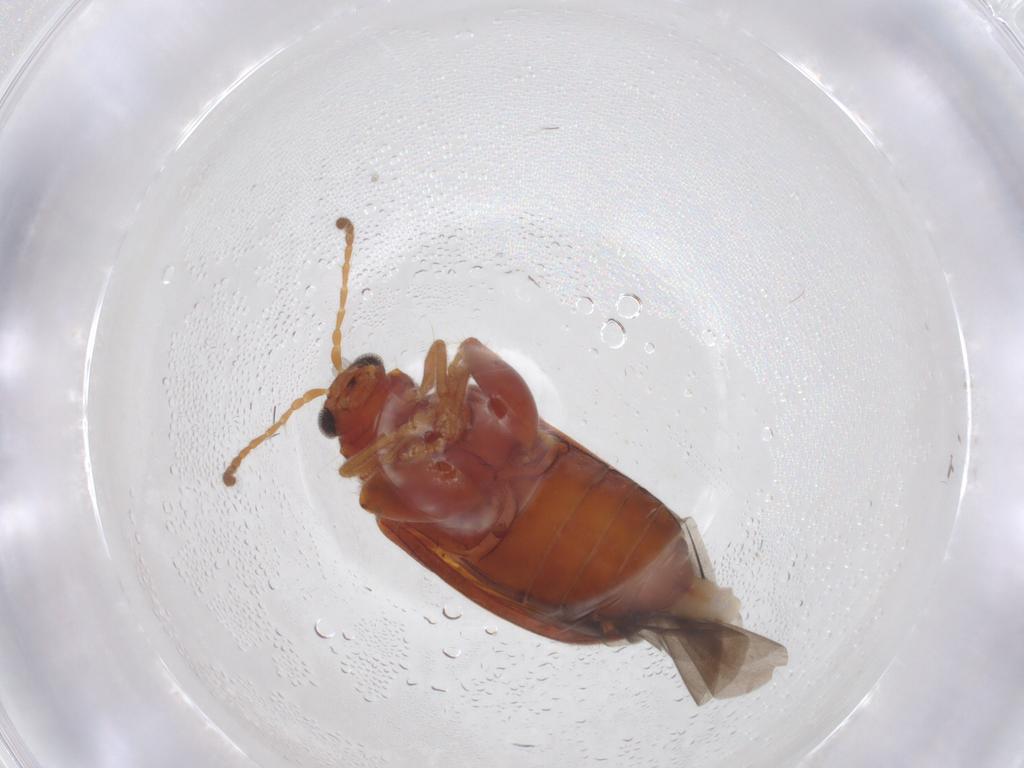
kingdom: Animalia
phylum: Arthropoda
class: Insecta
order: Coleoptera
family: Chrysomelidae
